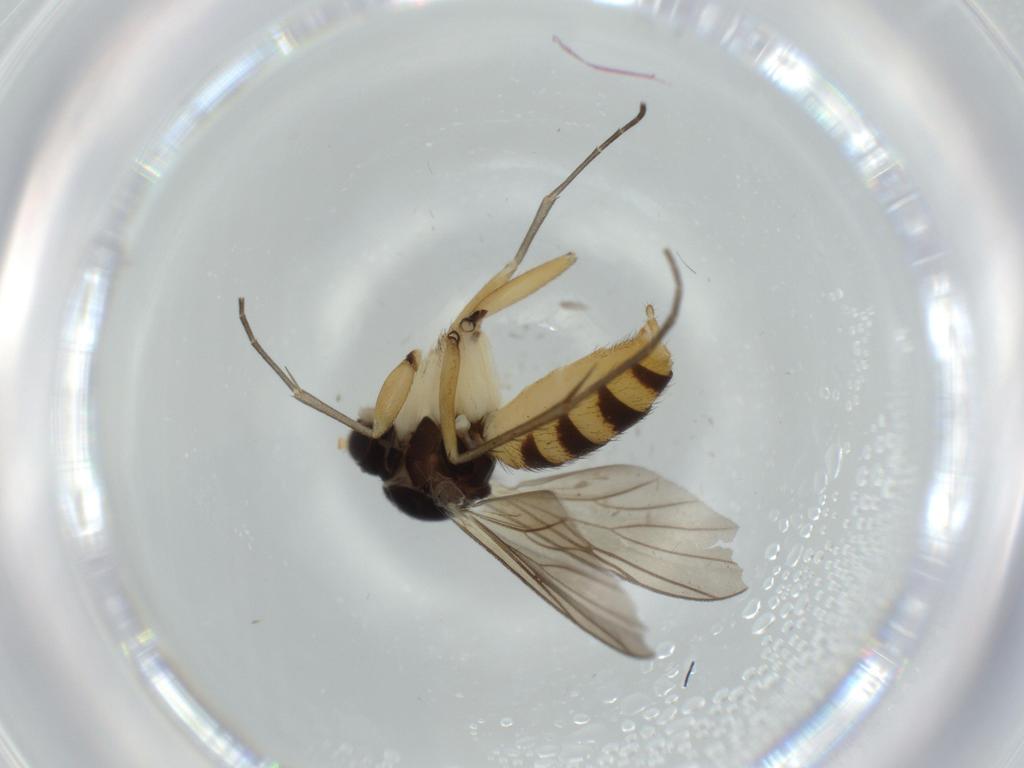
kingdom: Animalia
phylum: Arthropoda
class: Insecta
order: Diptera
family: Mycetophilidae
